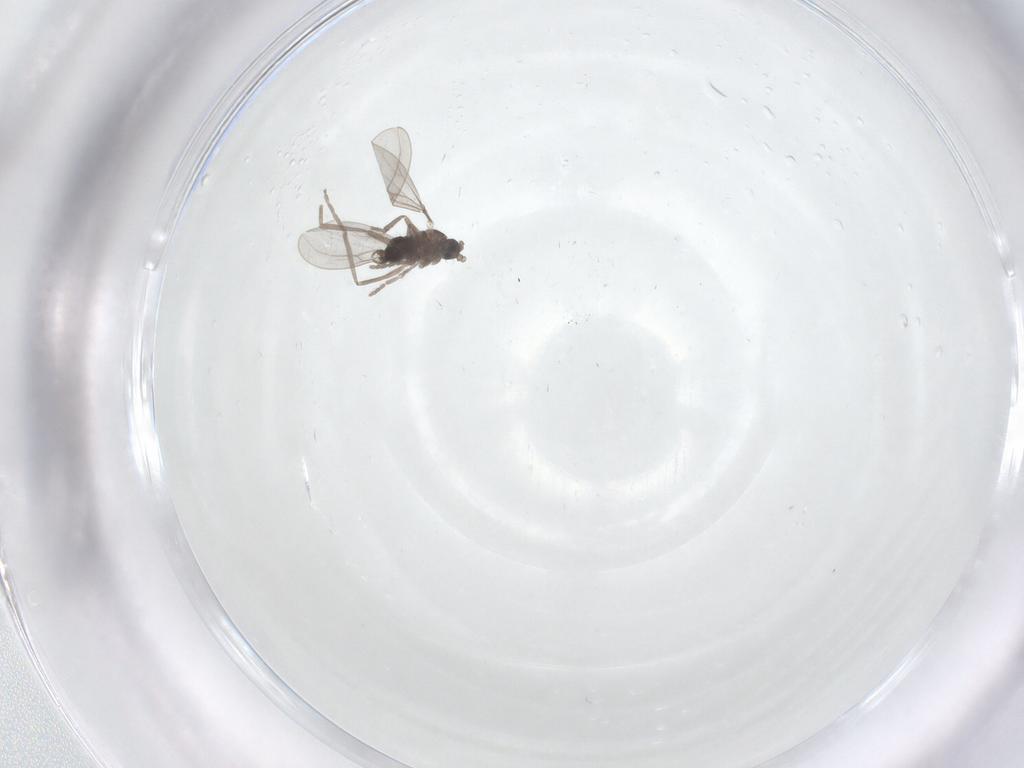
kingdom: Animalia
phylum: Arthropoda
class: Insecta
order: Diptera
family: Cecidomyiidae
